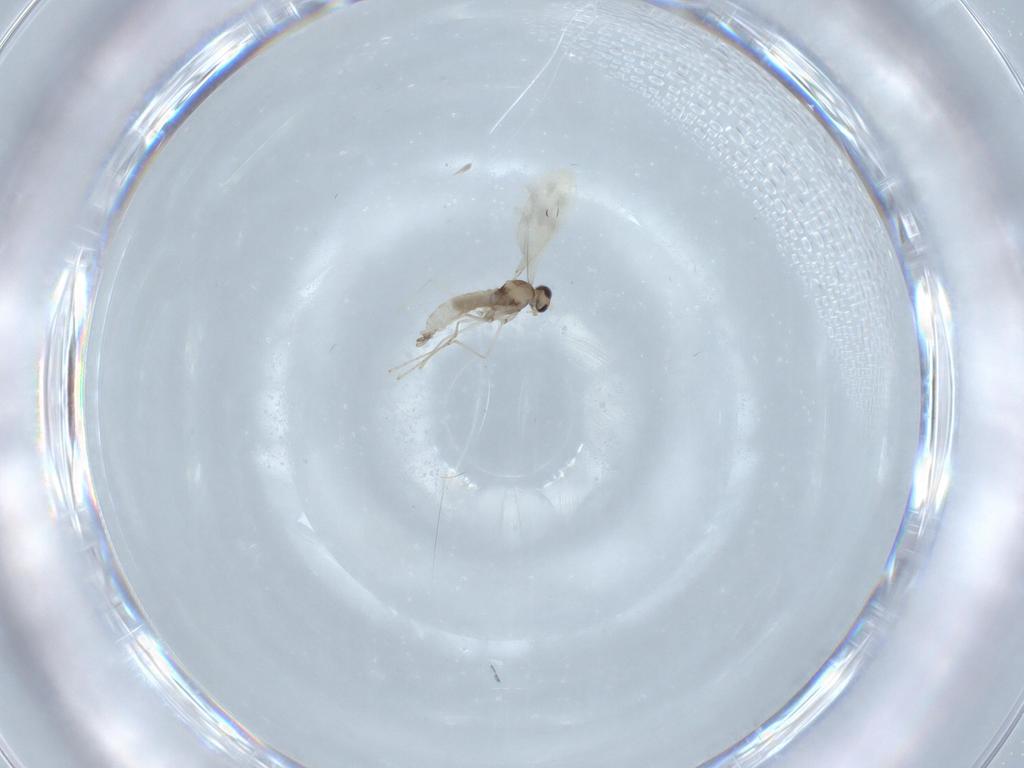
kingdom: Animalia
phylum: Arthropoda
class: Insecta
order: Diptera
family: Cecidomyiidae
